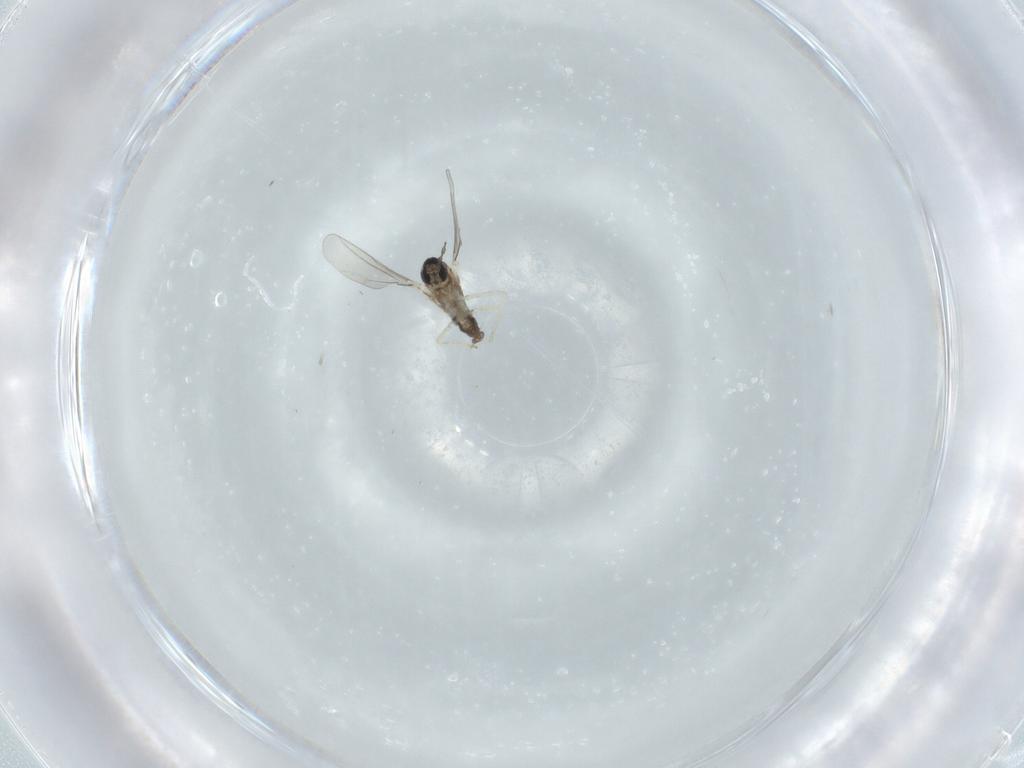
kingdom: Animalia
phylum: Arthropoda
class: Insecta
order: Diptera
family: Cecidomyiidae
